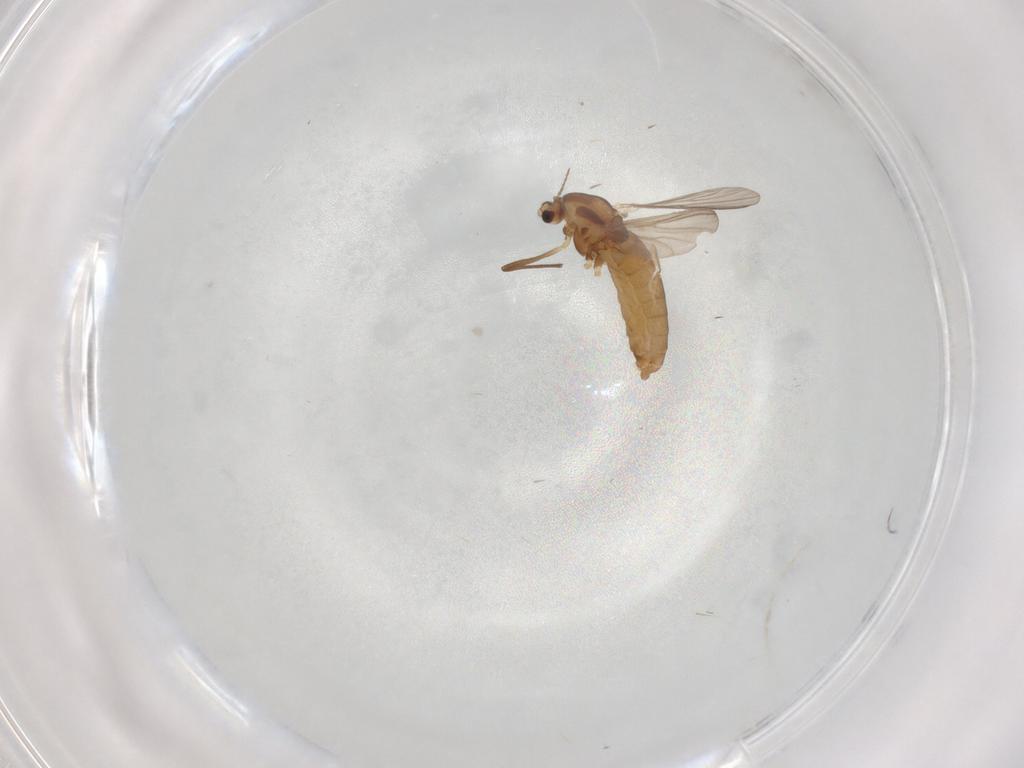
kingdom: Animalia
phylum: Arthropoda
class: Insecta
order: Diptera
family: Chironomidae
